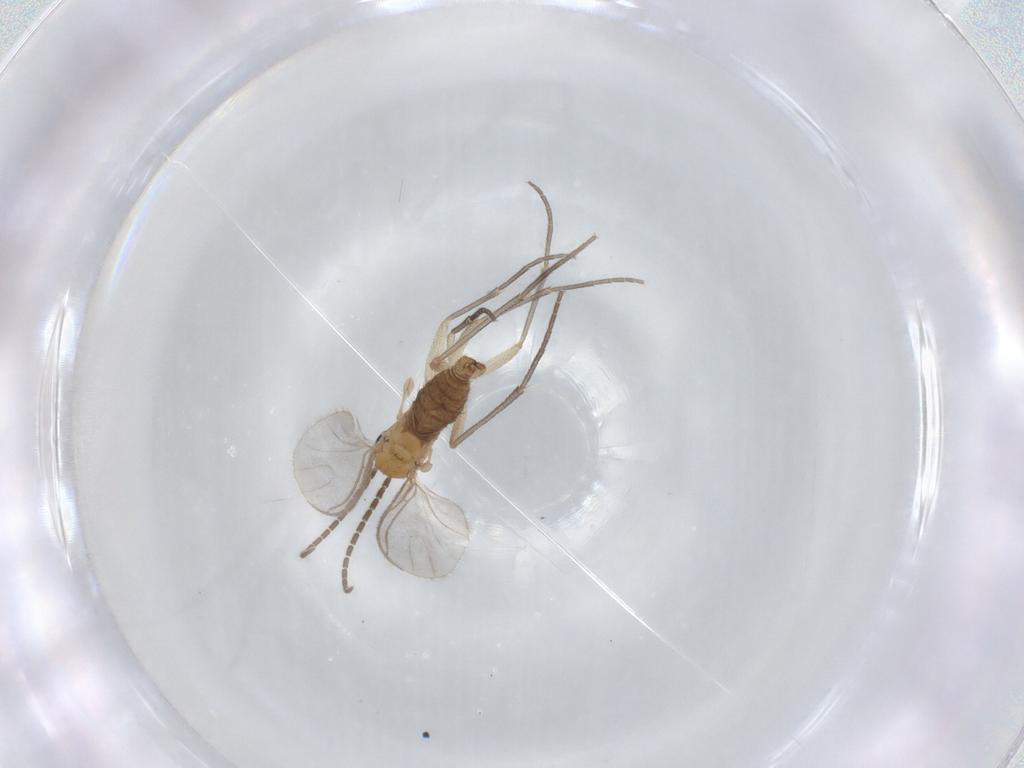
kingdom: Animalia
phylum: Arthropoda
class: Insecta
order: Diptera
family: Sciaridae
